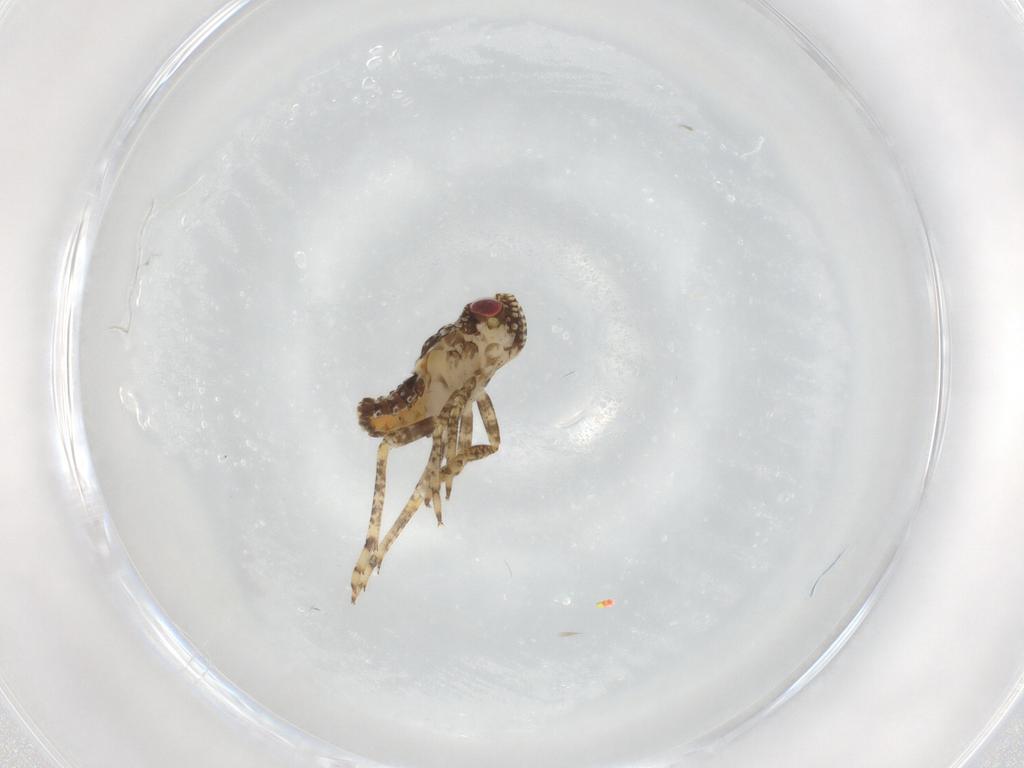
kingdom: Animalia
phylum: Arthropoda
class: Insecta
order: Hemiptera
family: Issidae
